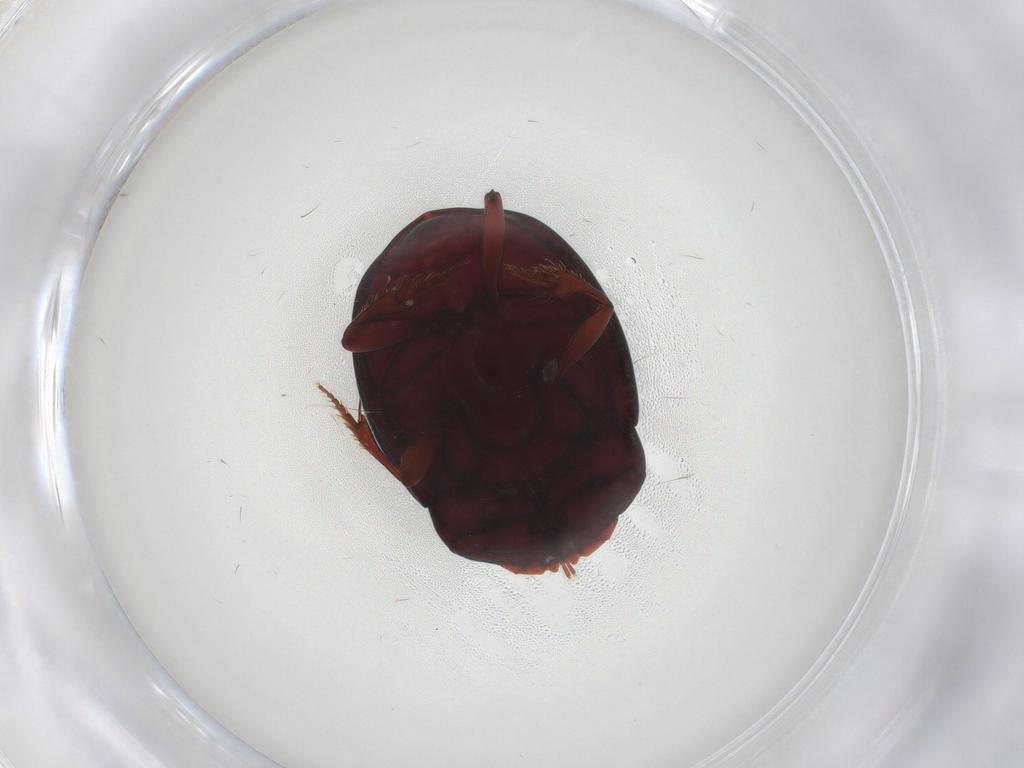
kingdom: Animalia
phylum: Arthropoda
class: Insecta
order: Coleoptera
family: Scarabaeidae
